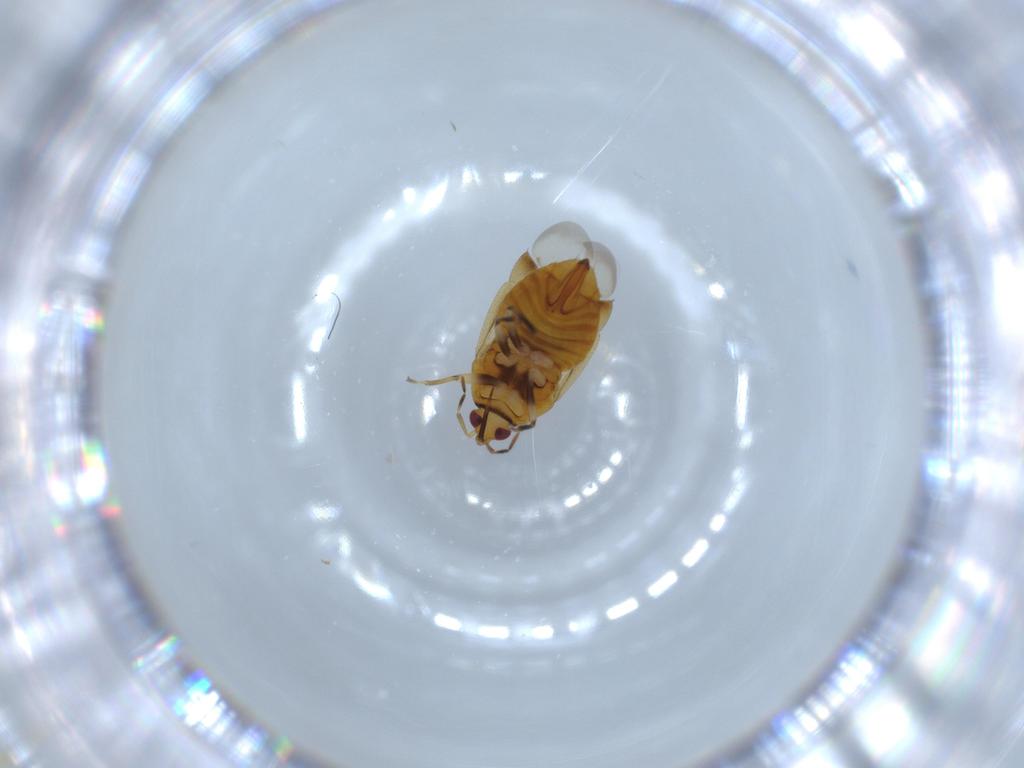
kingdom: Animalia
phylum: Arthropoda
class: Insecta
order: Hemiptera
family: Anthocoridae
